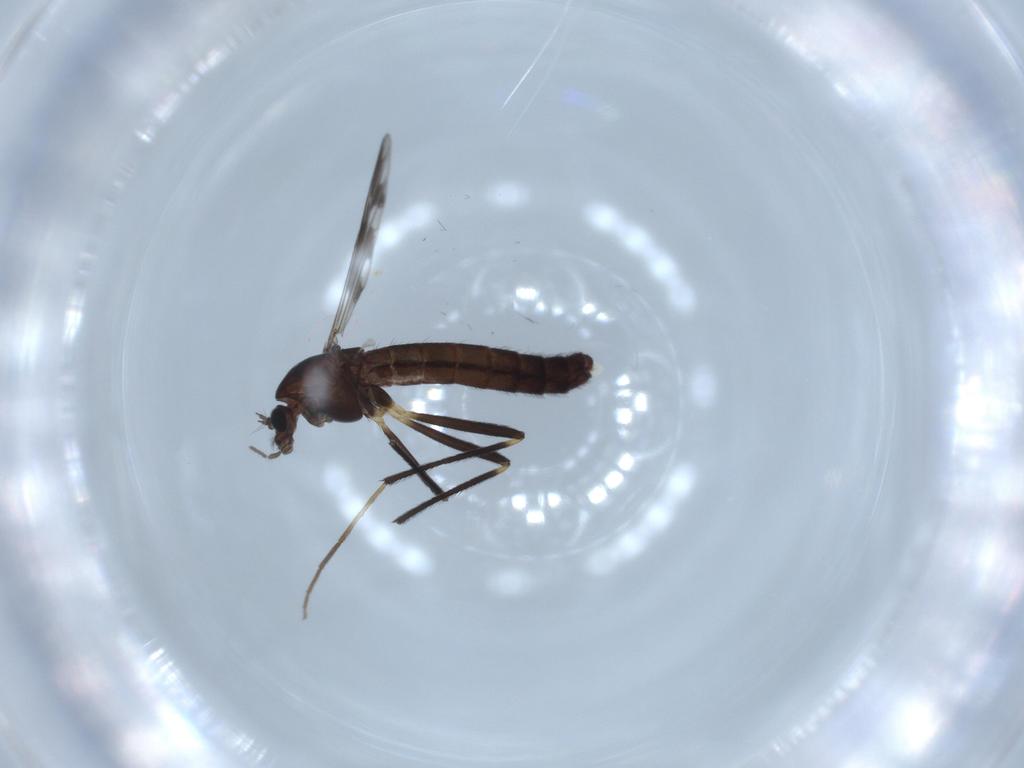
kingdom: Animalia
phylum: Arthropoda
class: Insecta
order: Diptera
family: Chironomidae
